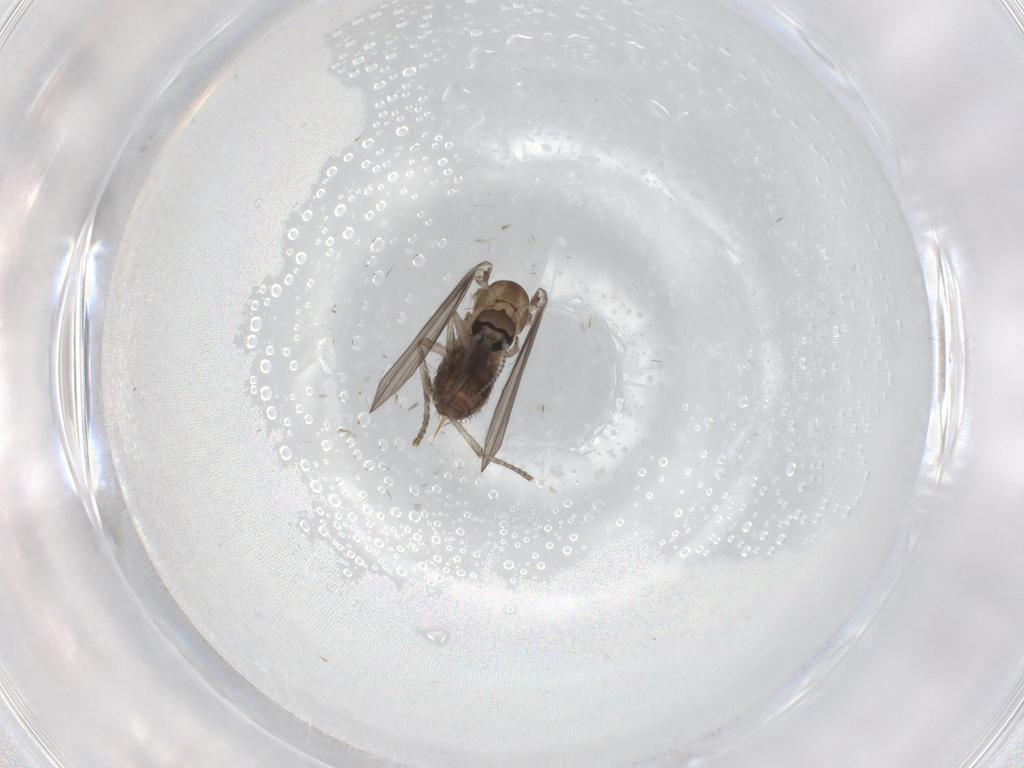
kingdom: Animalia
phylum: Arthropoda
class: Insecta
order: Diptera
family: Psychodidae
